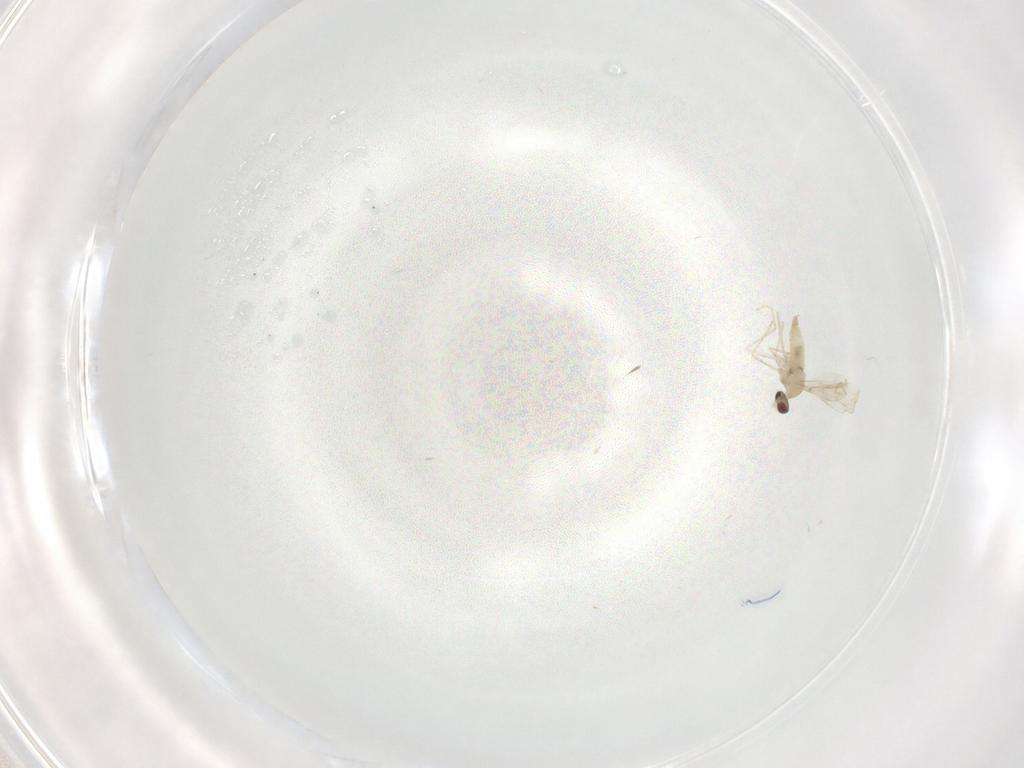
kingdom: Animalia
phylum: Arthropoda
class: Insecta
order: Diptera
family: Cecidomyiidae
